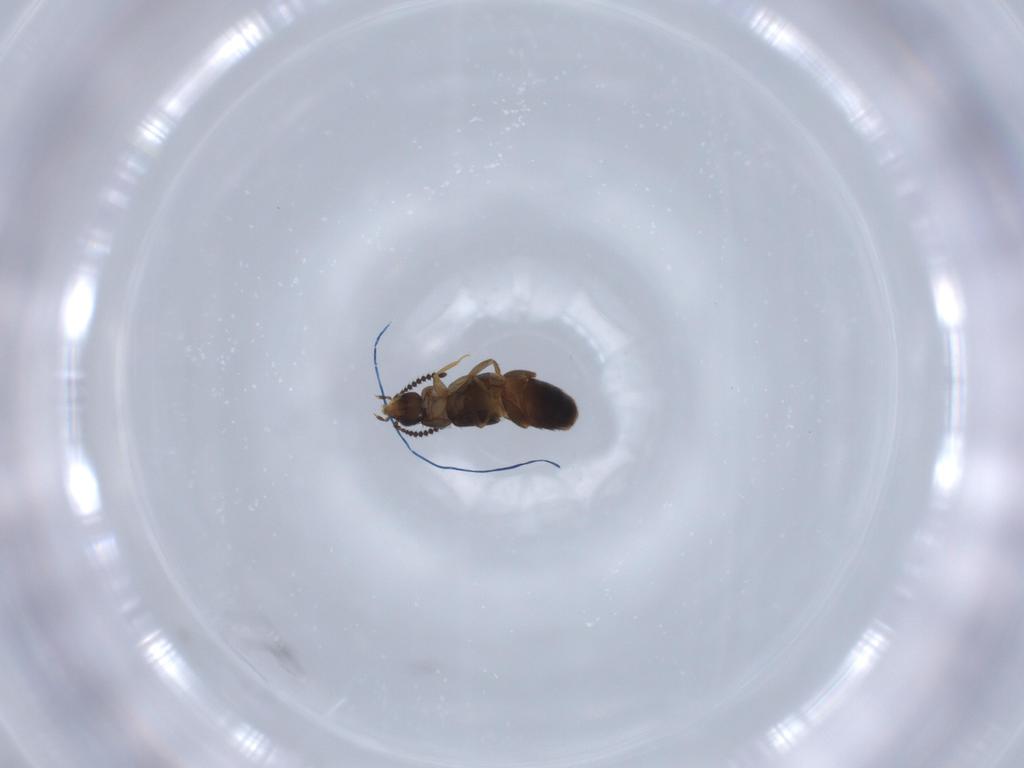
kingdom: Animalia
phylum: Arthropoda
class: Insecta
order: Coleoptera
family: Staphylinidae
